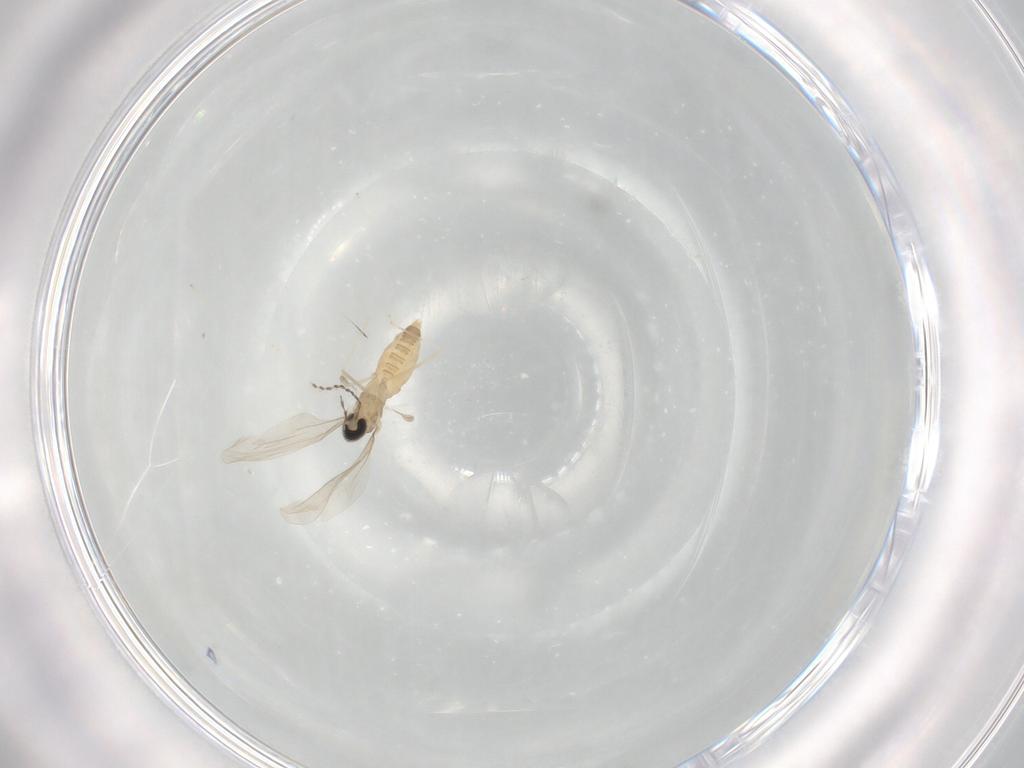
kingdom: Animalia
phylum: Arthropoda
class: Insecta
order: Diptera
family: Cecidomyiidae
